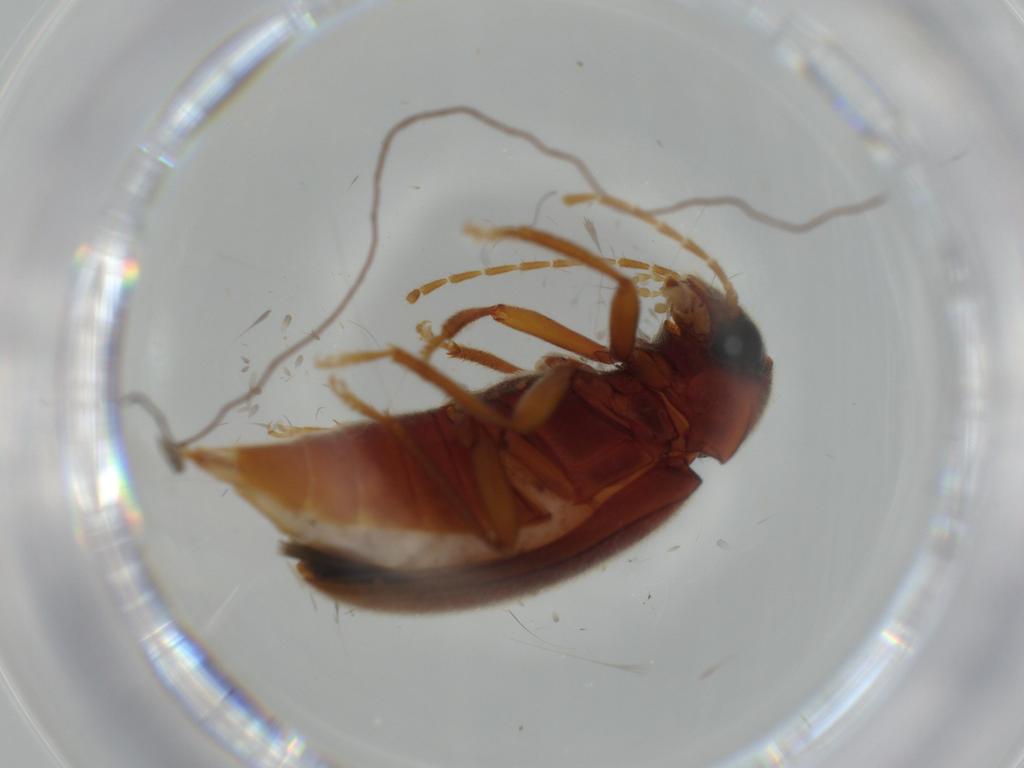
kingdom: Animalia
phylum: Arthropoda
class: Insecta
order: Coleoptera
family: Ptilodactylidae
